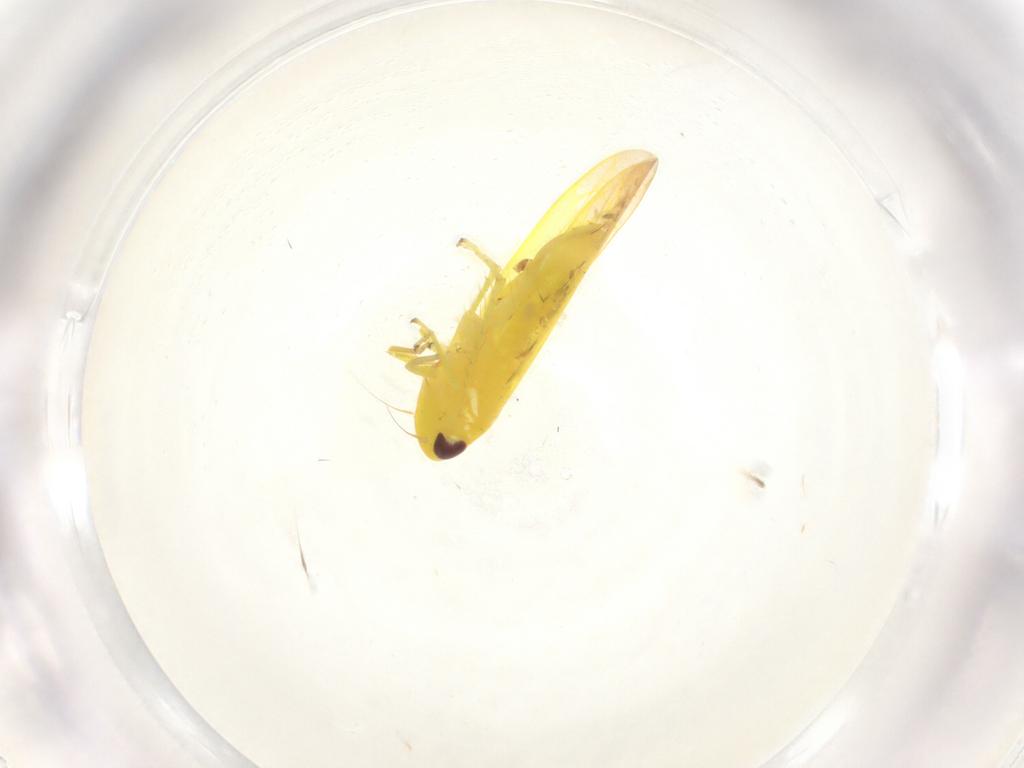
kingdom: Animalia
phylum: Arthropoda
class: Insecta
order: Hemiptera
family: Cicadellidae
